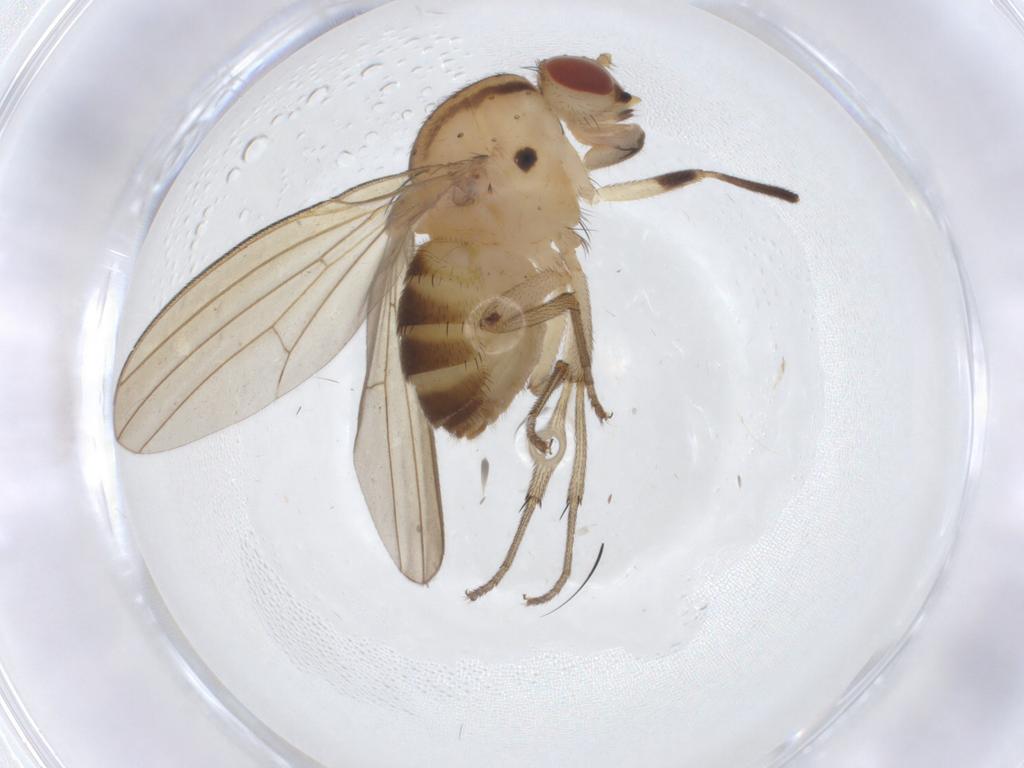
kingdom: Animalia
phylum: Arthropoda
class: Insecta
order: Diptera
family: Lauxaniidae
